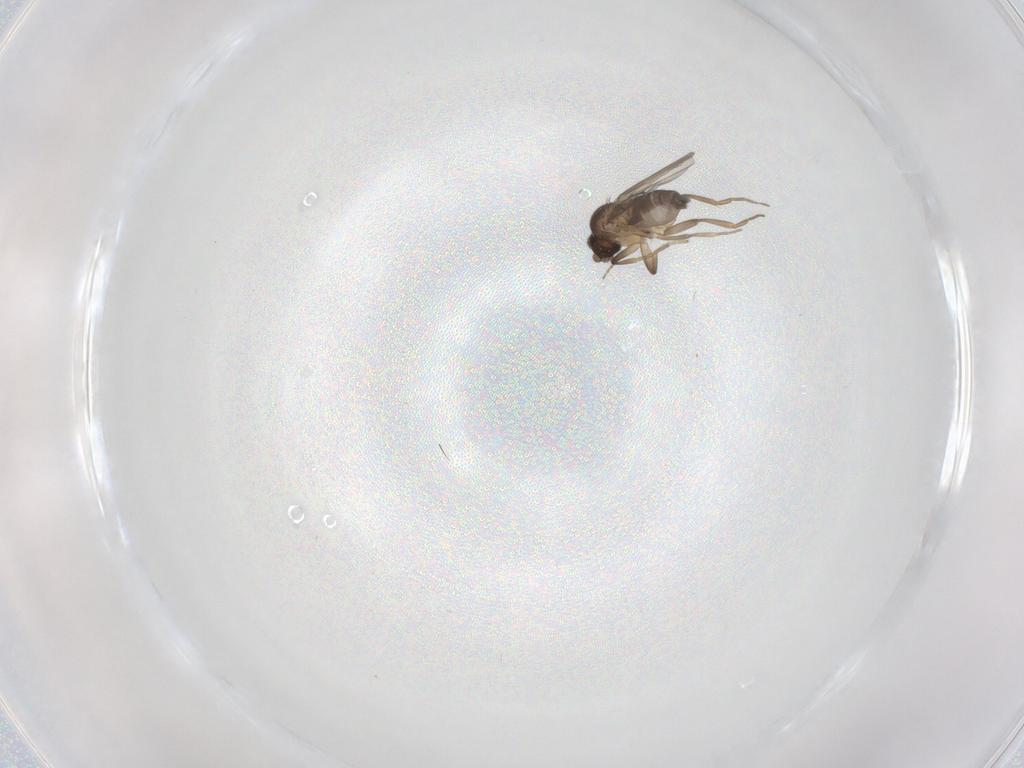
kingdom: Animalia
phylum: Arthropoda
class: Insecta
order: Diptera
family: Phoridae
